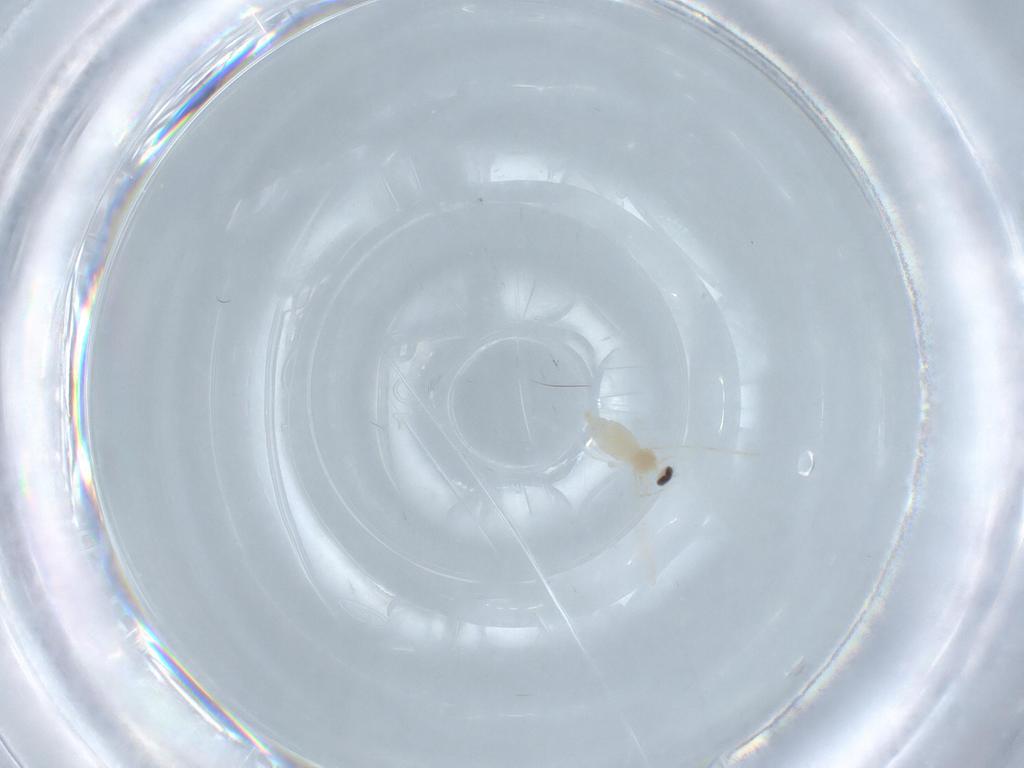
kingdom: Animalia
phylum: Arthropoda
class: Insecta
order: Diptera
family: Cecidomyiidae
